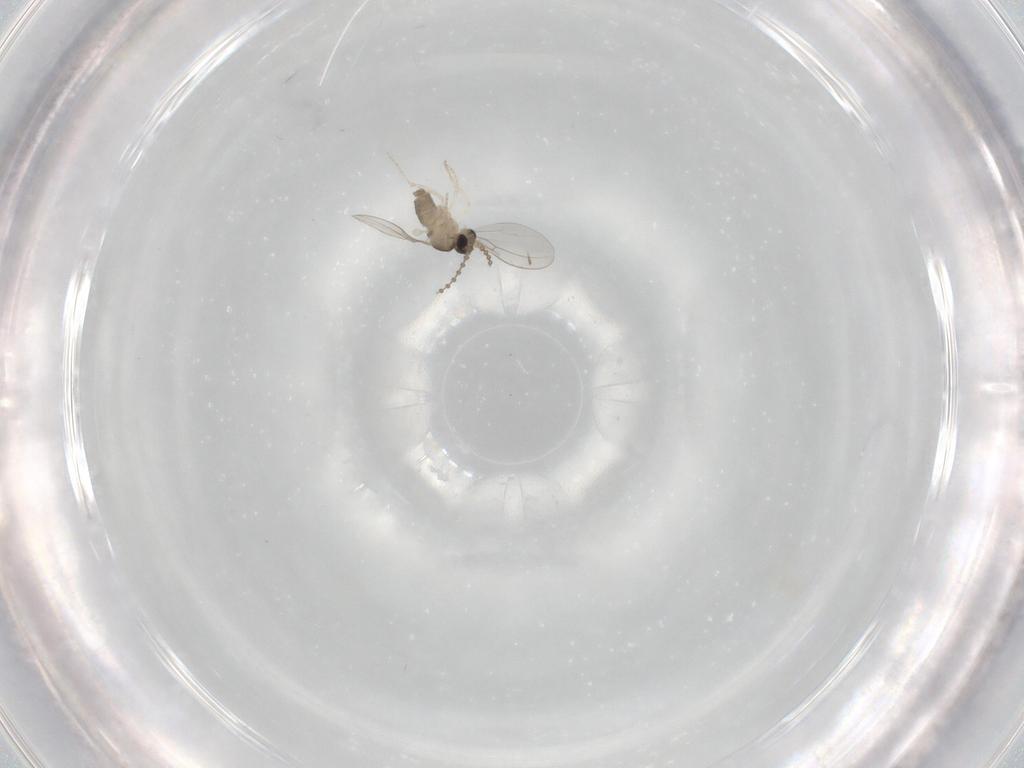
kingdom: Animalia
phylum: Arthropoda
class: Insecta
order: Diptera
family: Cecidomyiidae
